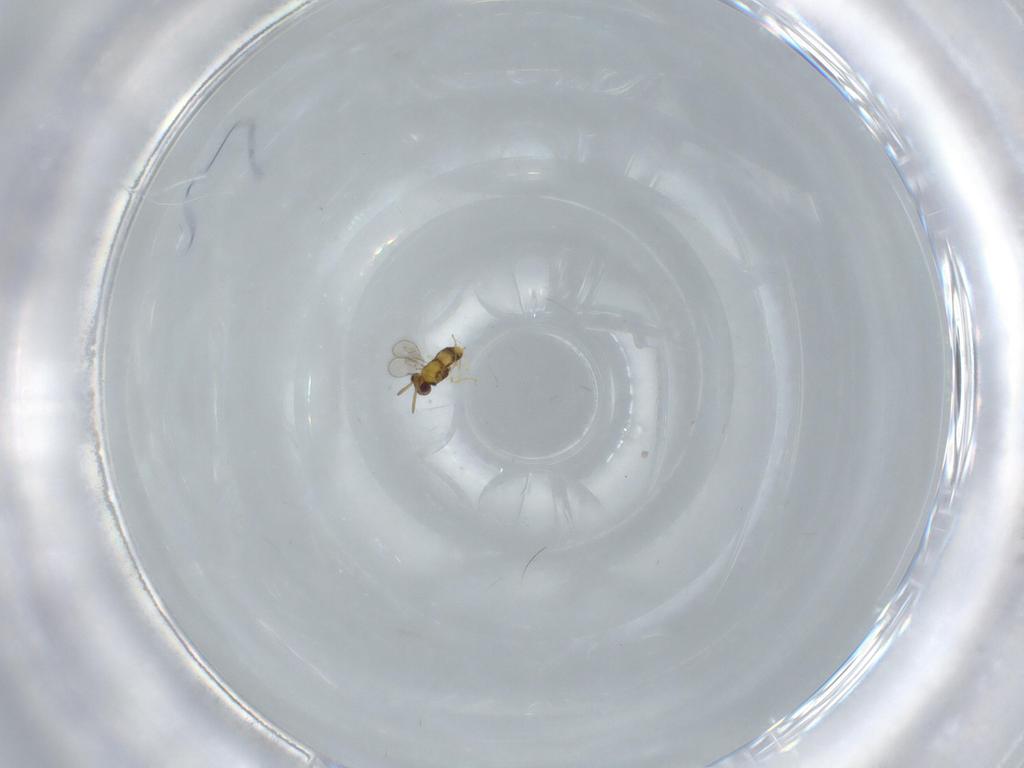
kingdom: Animalia
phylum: Arthropoda
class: Insecta
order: Hymenoptera
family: Aphelinidae
